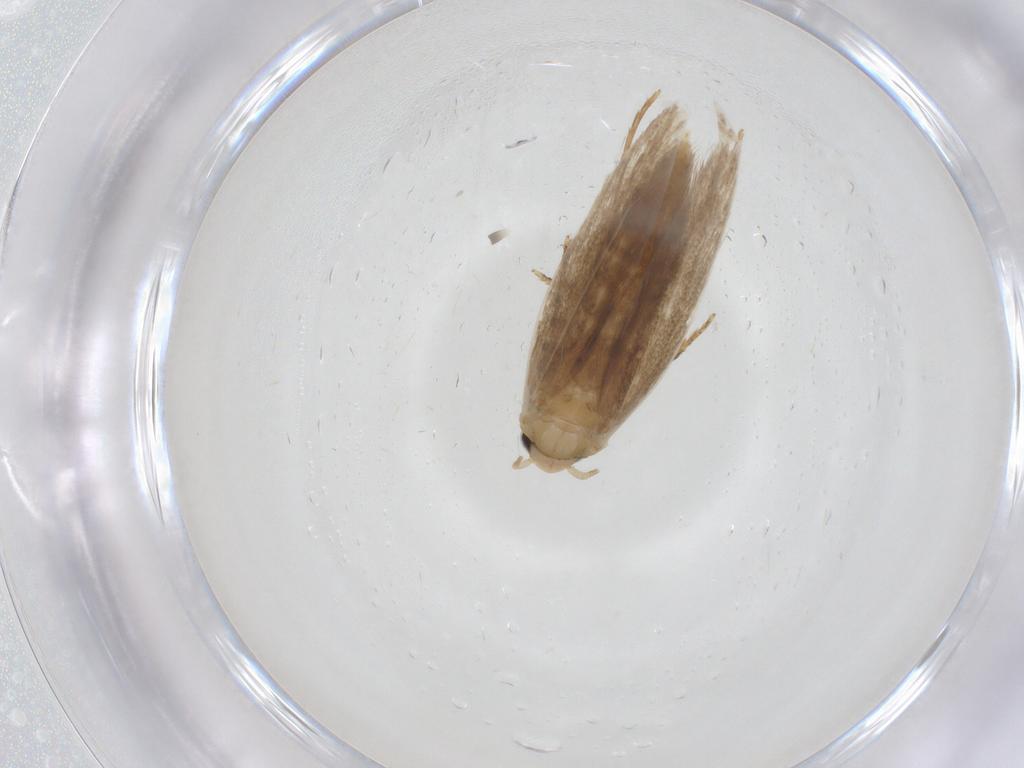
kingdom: Animalia
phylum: Arthropoda
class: Insecta
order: Lepidoptera
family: Tineidae
